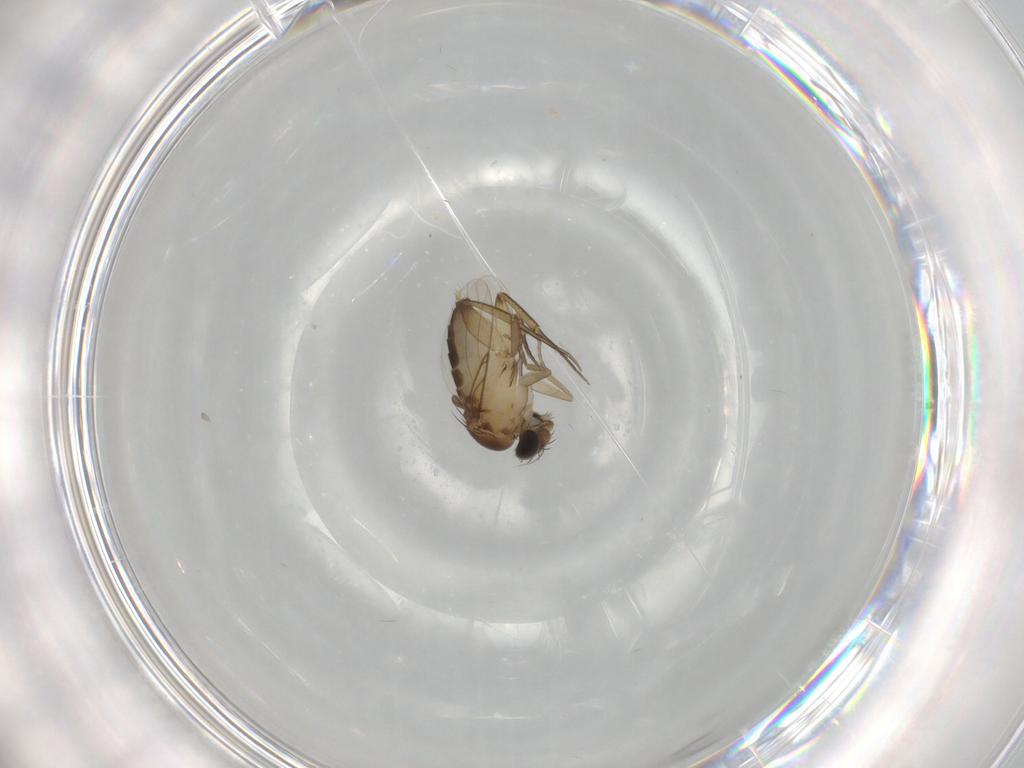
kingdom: Animalia
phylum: Arthropoda
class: Insecta
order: Diptera
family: Phoridae
